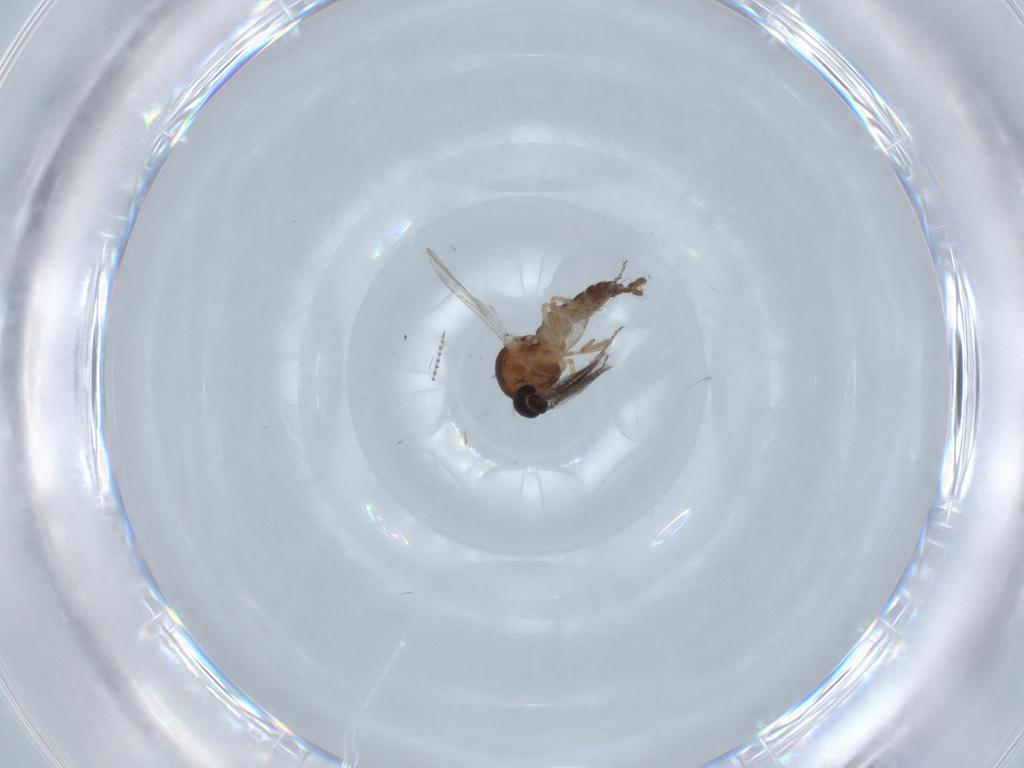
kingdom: Animalia
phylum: Arthropoda
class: Insecta
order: Diptera
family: Ceratopogonidae
